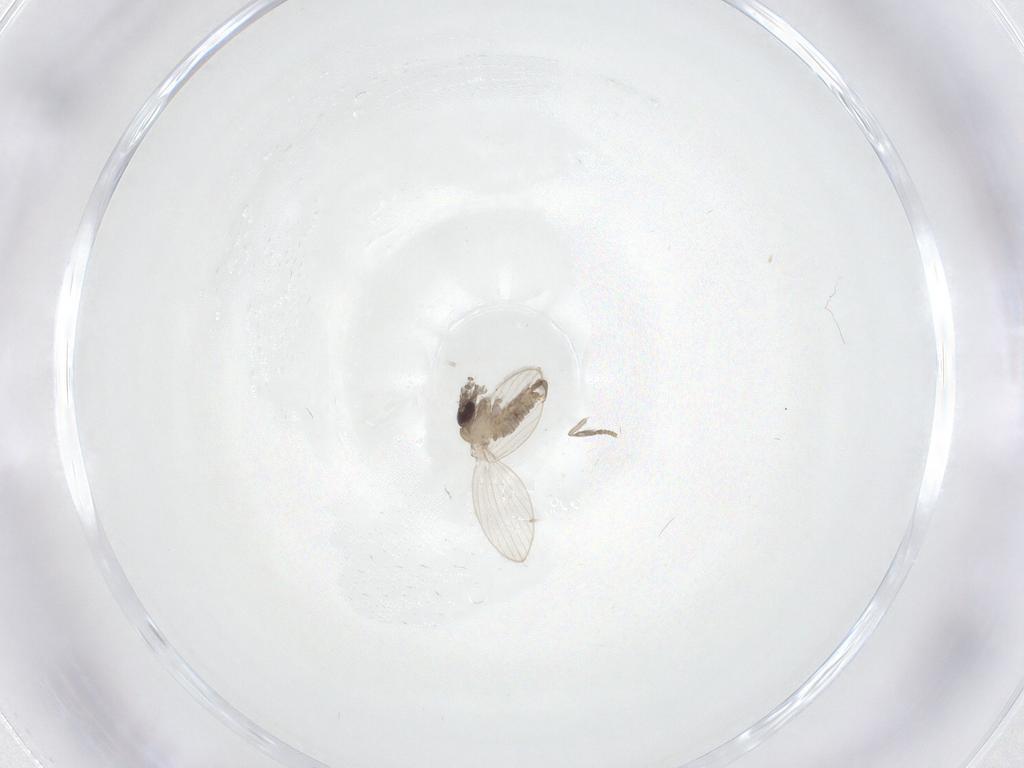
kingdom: Animalia
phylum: Arthropoda
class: Insecta
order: Diptera
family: Psychodidae
